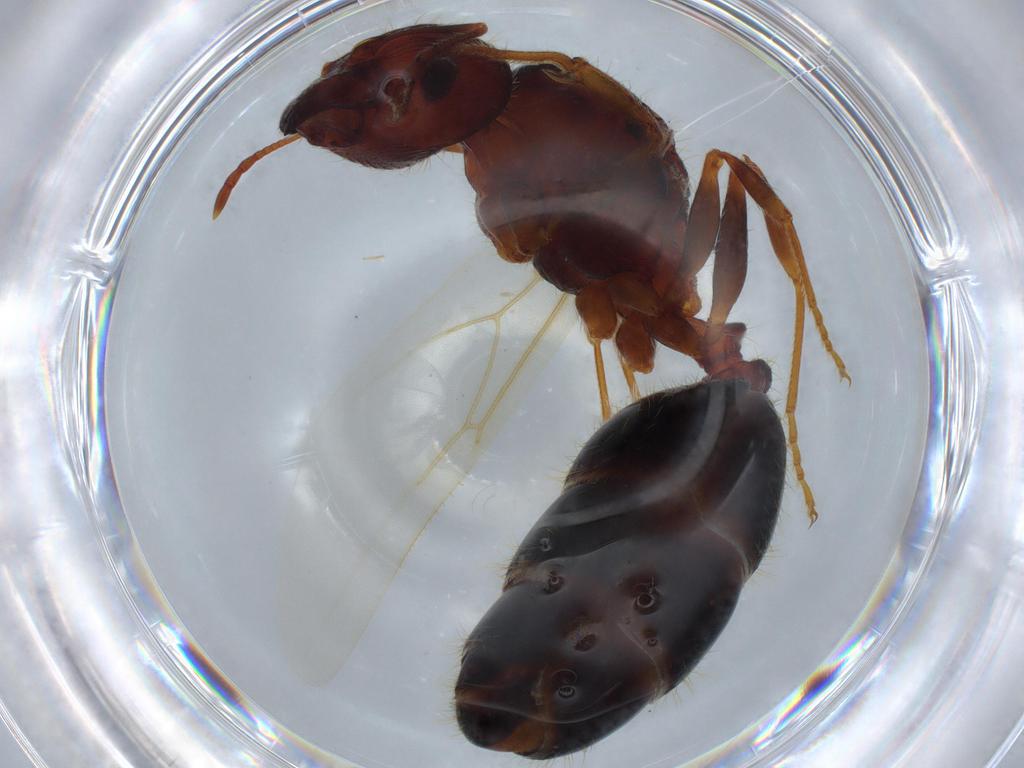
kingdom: Animalia
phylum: Arthropoda
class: Insecta
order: Hymenoptera
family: Formicidae
